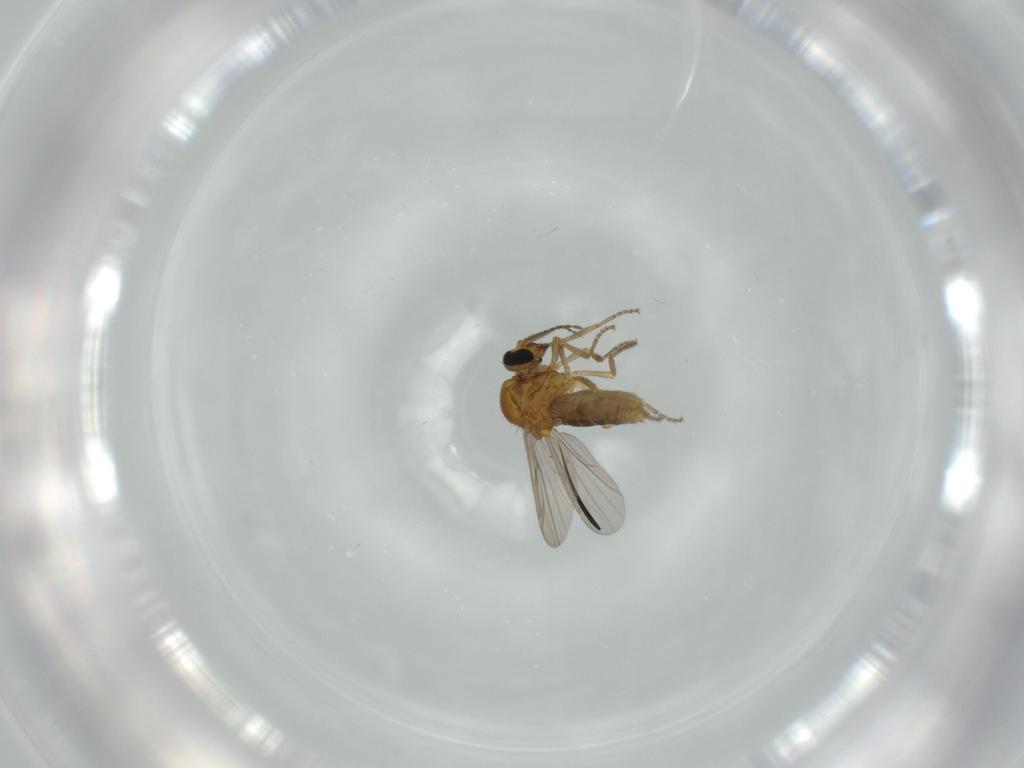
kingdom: Animalia
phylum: Arthropoda
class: Insecta
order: Diptera
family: Ceratopogonidae
